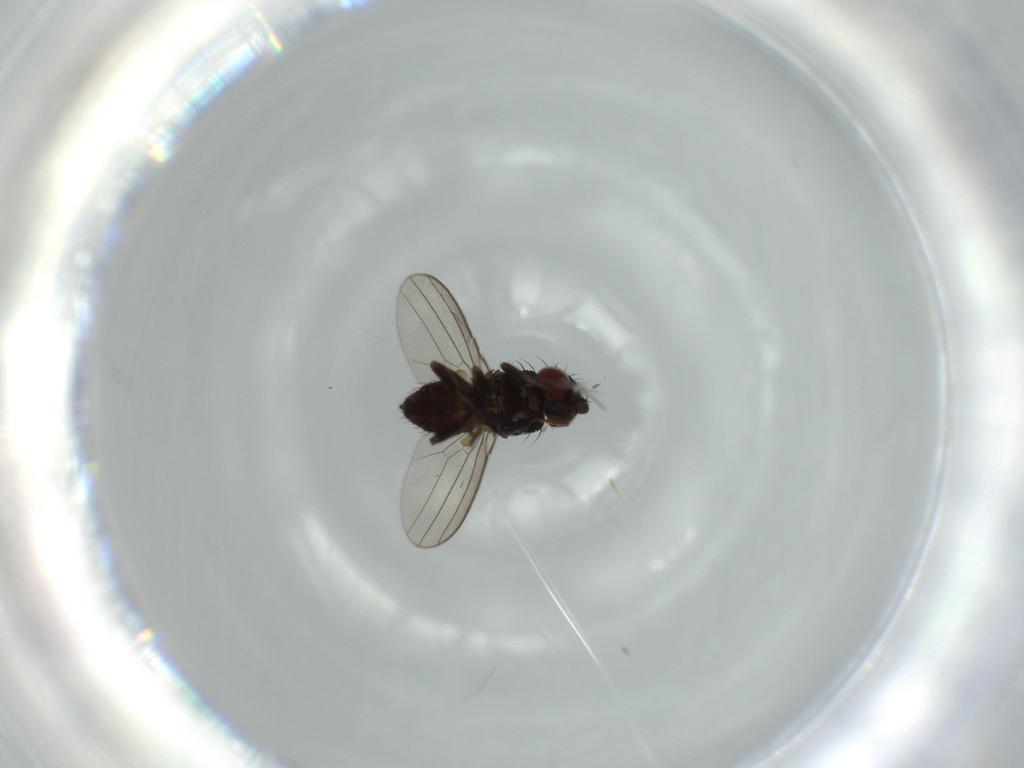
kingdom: Animalia
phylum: Arthropoda
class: Insecta
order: Diptera
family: Milichiidae
